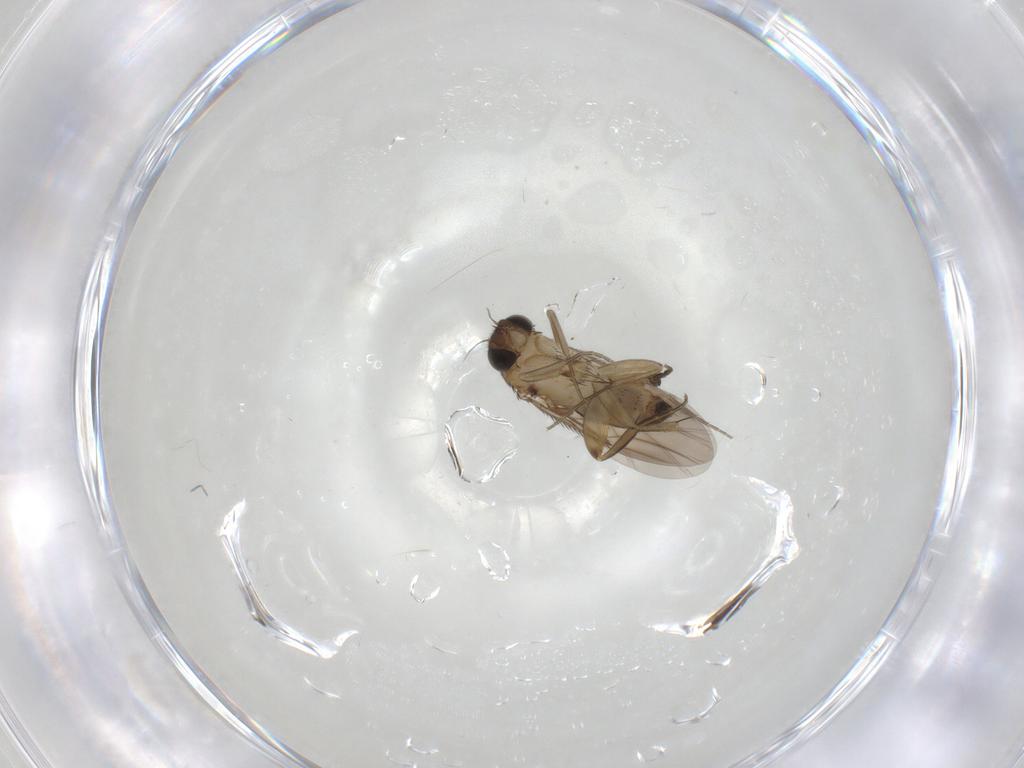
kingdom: Animalia
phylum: Arthropoda
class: Insecta
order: Diptera
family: Phoridae
